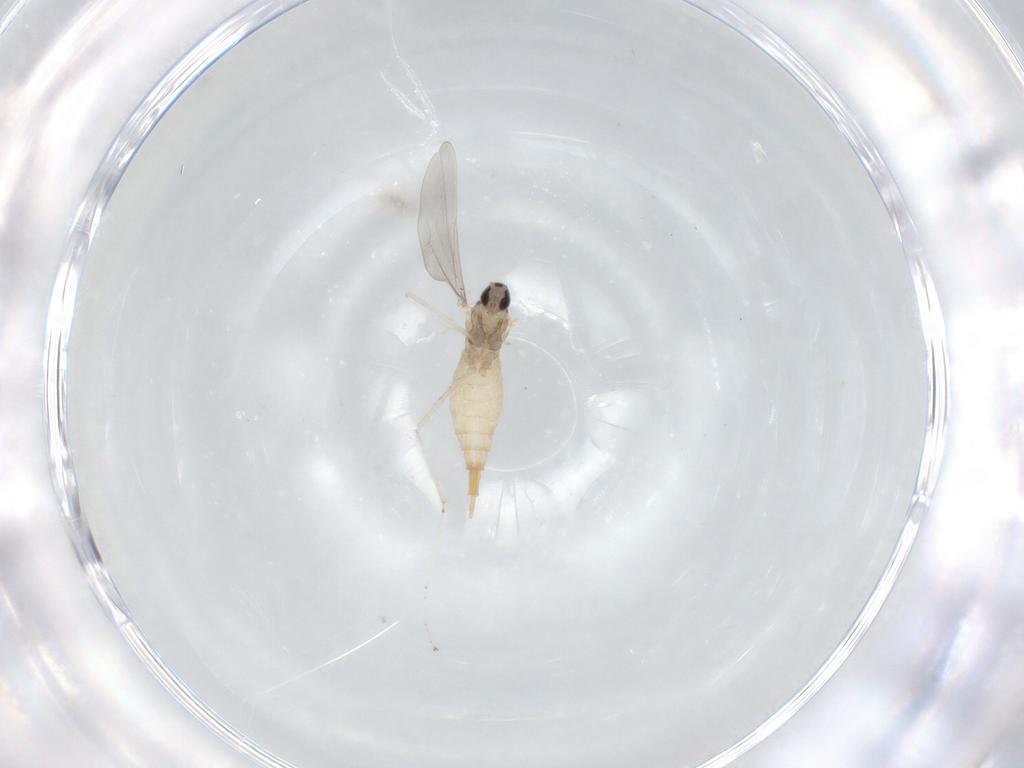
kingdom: Animalia
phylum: Arthropoda
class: Insecta
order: Diptera
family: Cecidomyiidae
